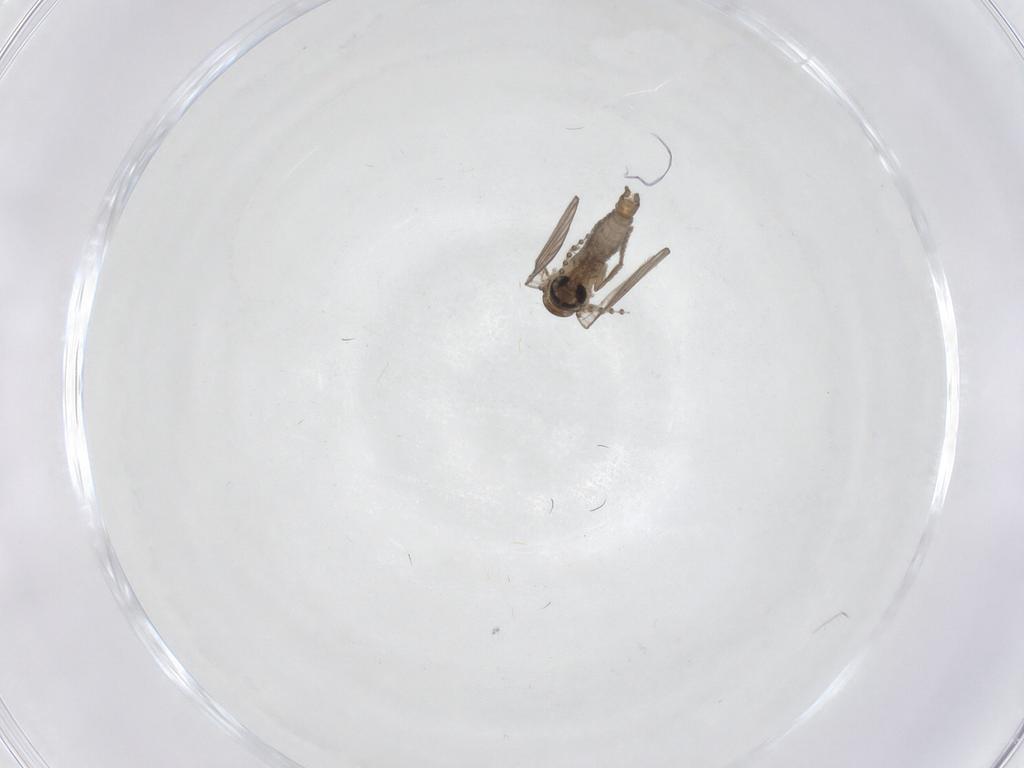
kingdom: Animalia
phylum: Arthropoda
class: Insecta
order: Diptera
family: Psychodidae
